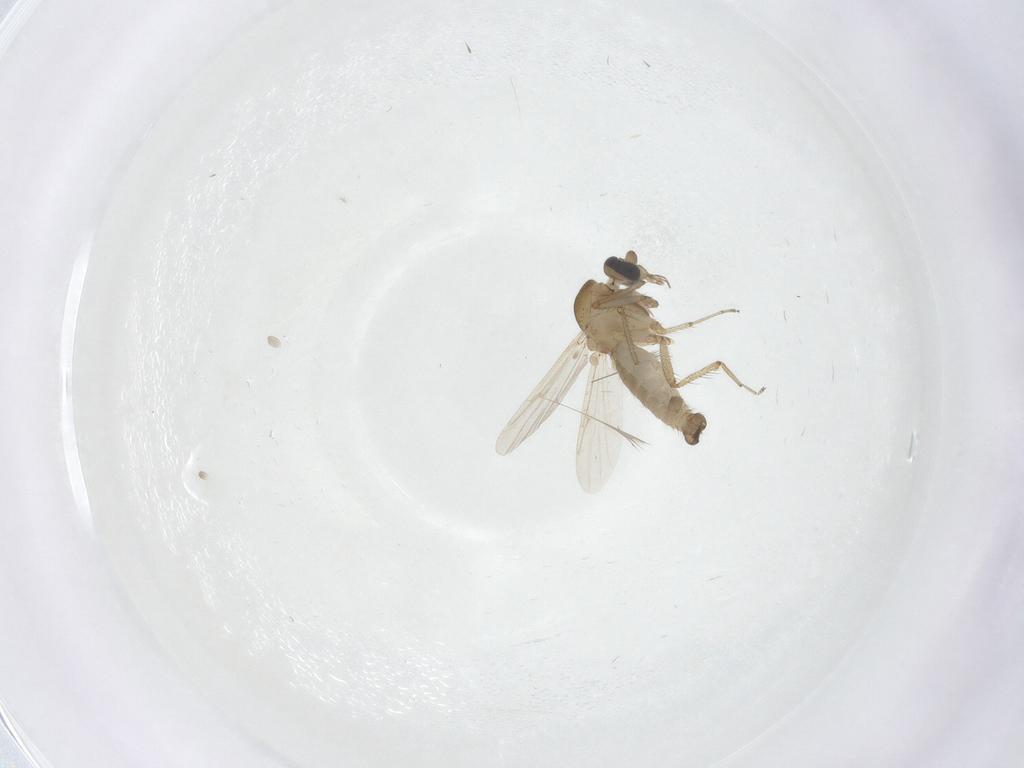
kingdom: Animalia
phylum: Arthropoda
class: Insecta
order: Diptera
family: Ceratopogonidae
